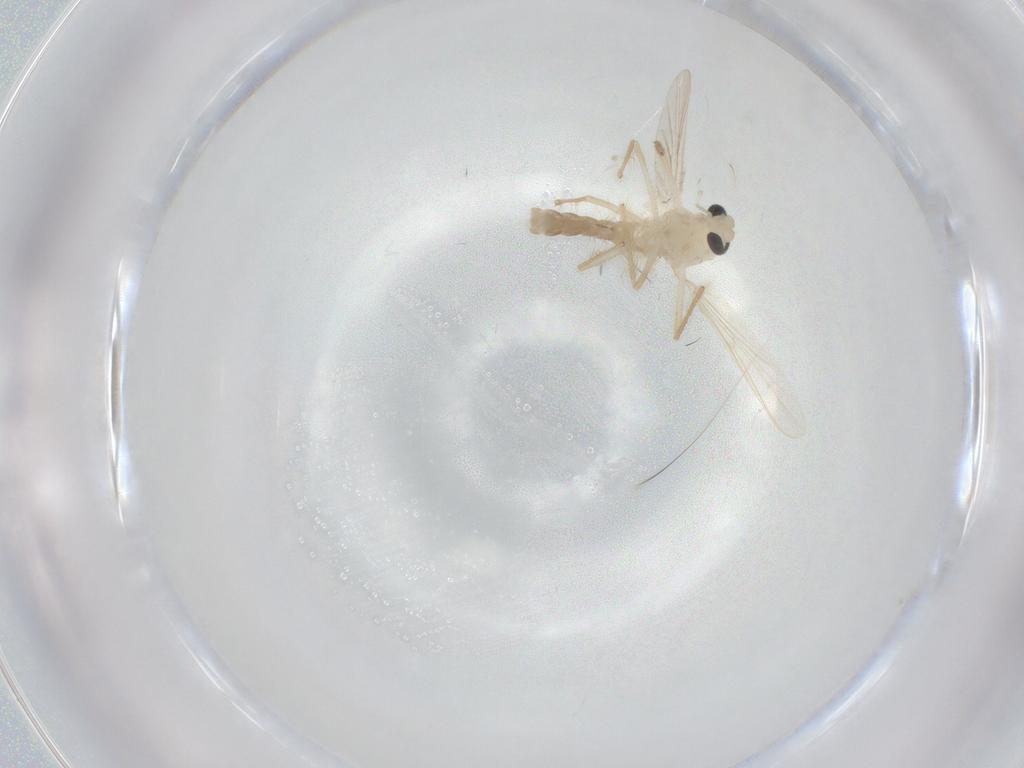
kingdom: Animalia
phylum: Arthropoda
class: Insecta
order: Diptera
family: Chironomidae
